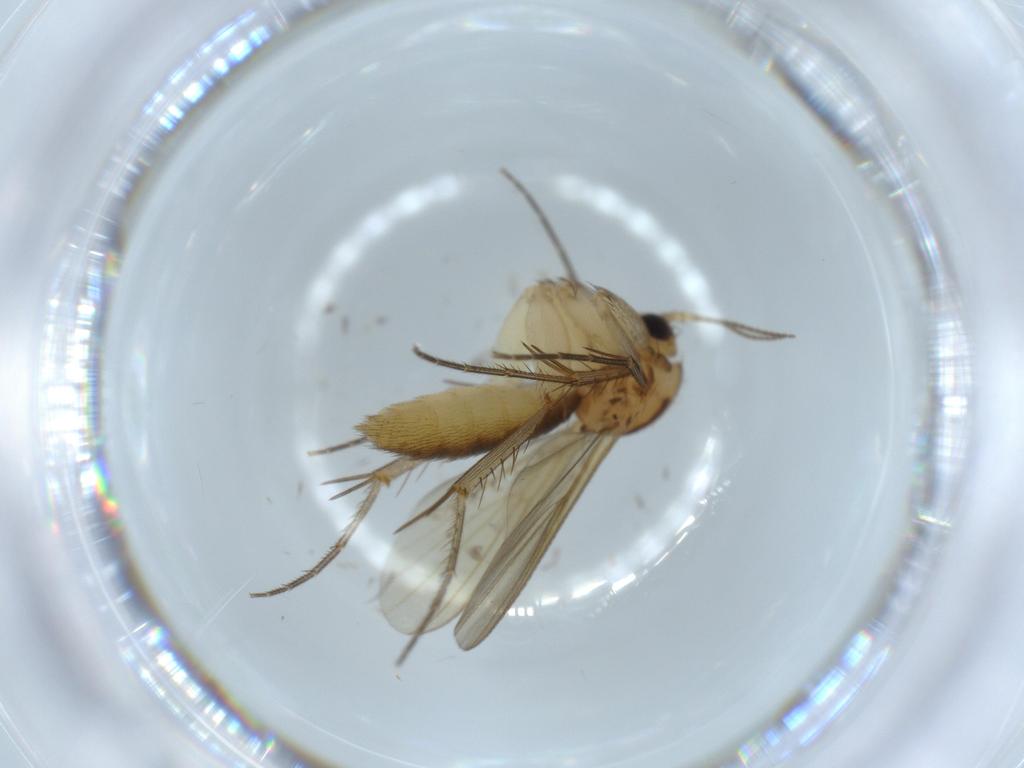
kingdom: Animalia
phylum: Arthropoda
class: Insecta
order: Diptera
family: Mycetophilidae
